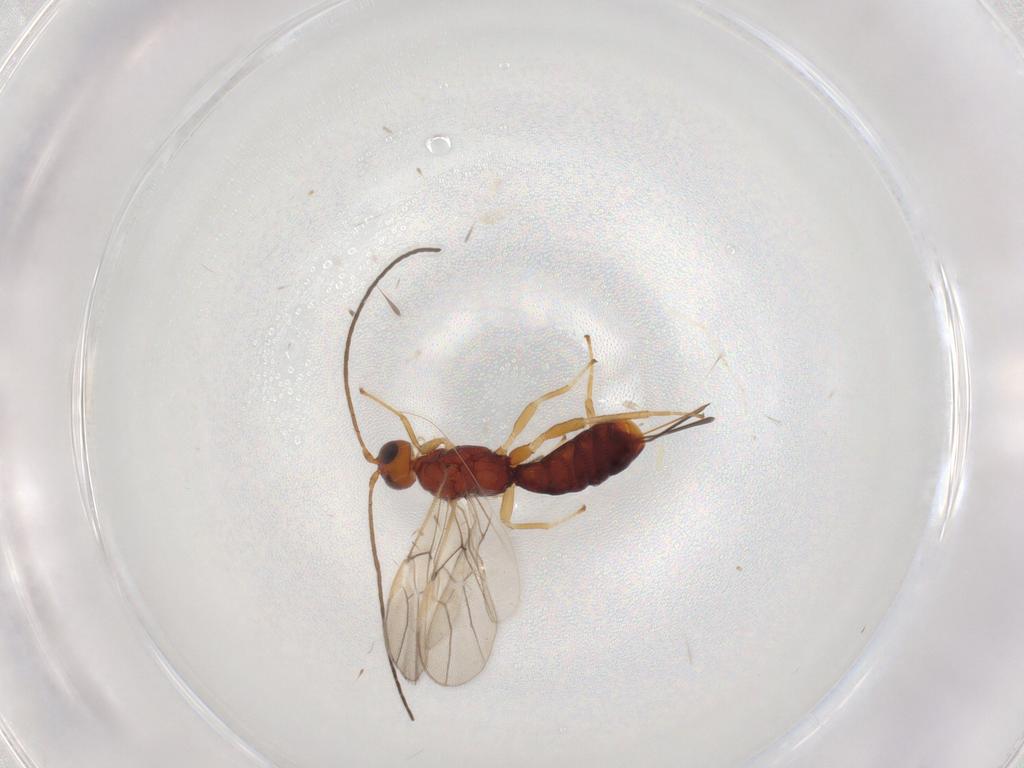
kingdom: Animalia
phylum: Arthropoda
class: Insecta
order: Hymenoptera
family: Braconidae
